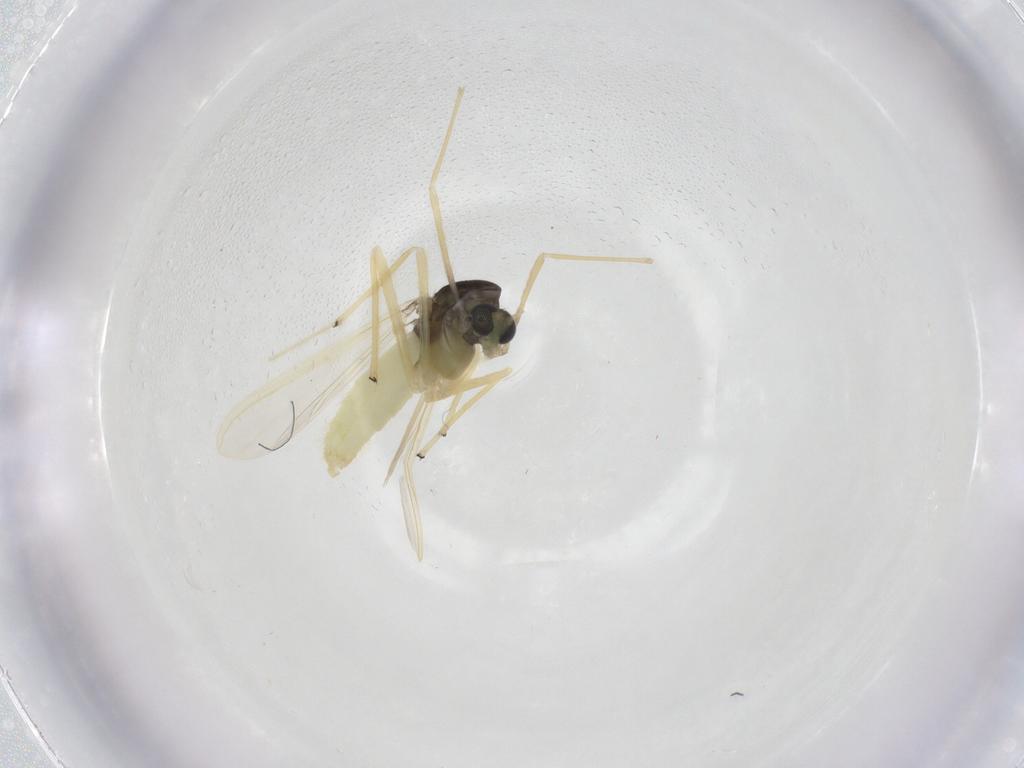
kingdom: Animalia
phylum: Arthropoda
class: Insecta
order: Diptera
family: Chironomidae
